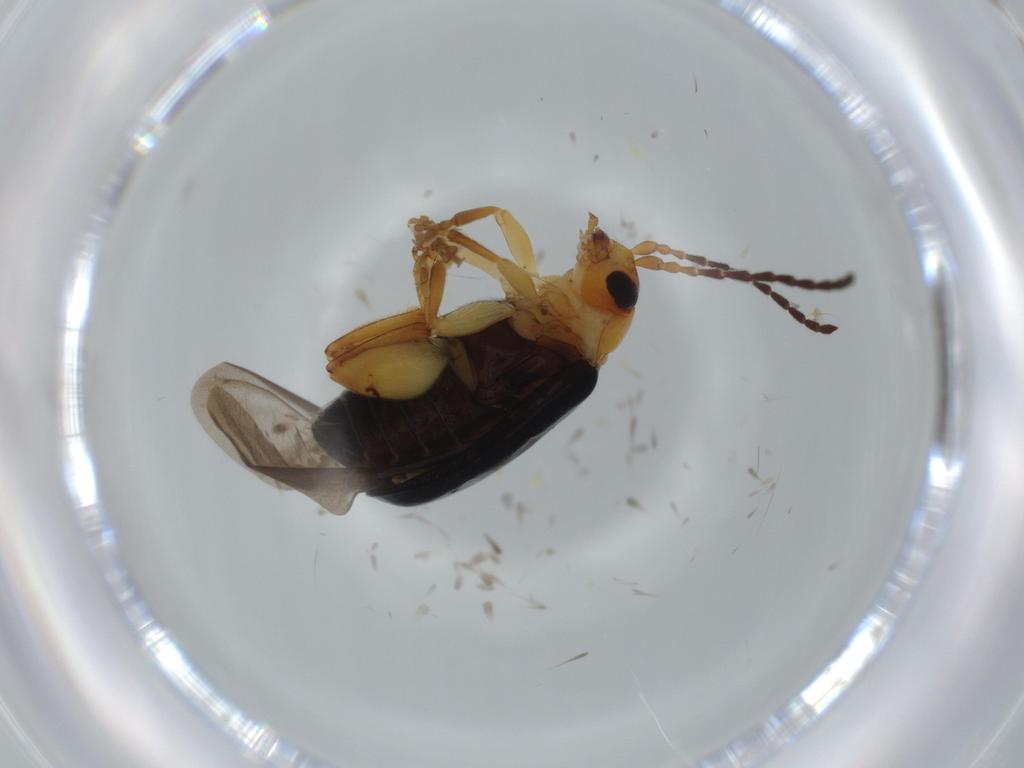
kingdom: Animalia
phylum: Arthropoda
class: Insecta
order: Coleoptera
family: Chrysomelidae
